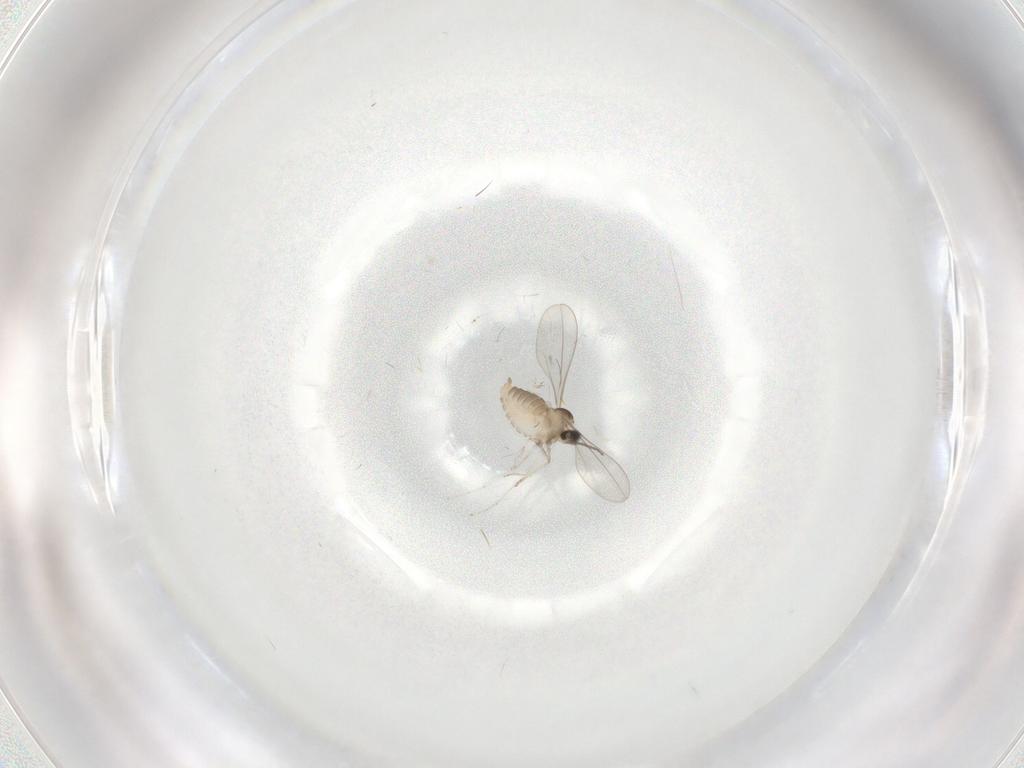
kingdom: Animalia
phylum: Arthropoda
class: Insecta
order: Diptera
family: Cecidomyiidae
